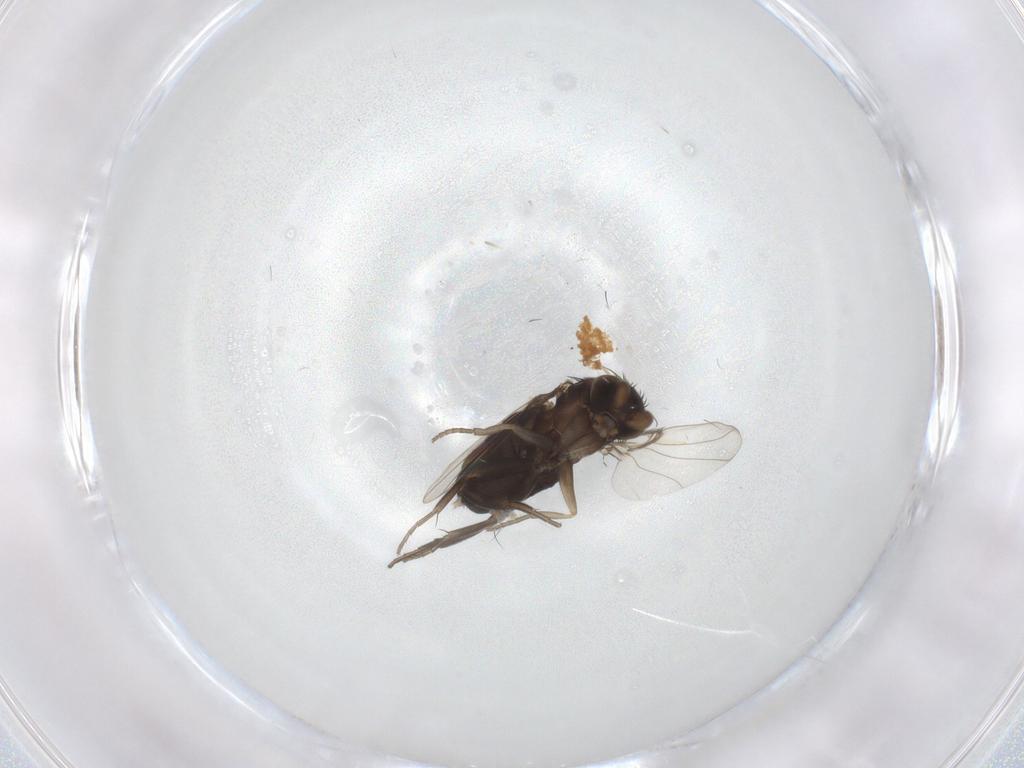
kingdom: Animalia
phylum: Arthropoda
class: Insecta
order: Diptera
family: Phoridae
